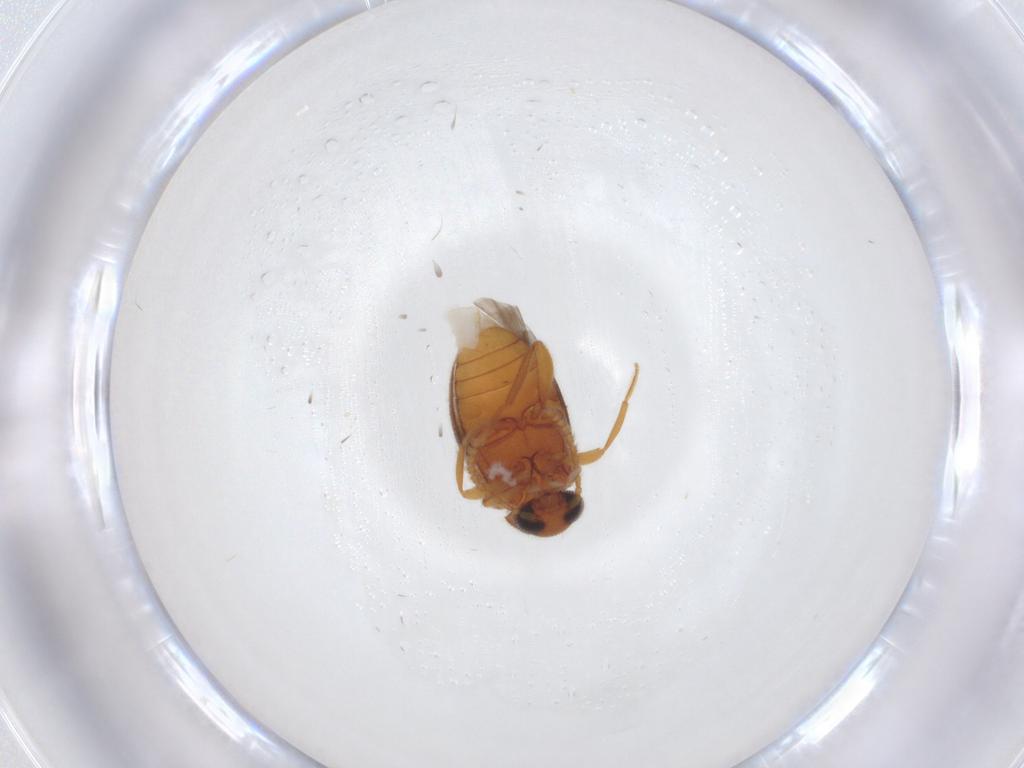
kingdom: Animalia
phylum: Arthropoda
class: Insecta
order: Coleoptera
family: Aderidae
